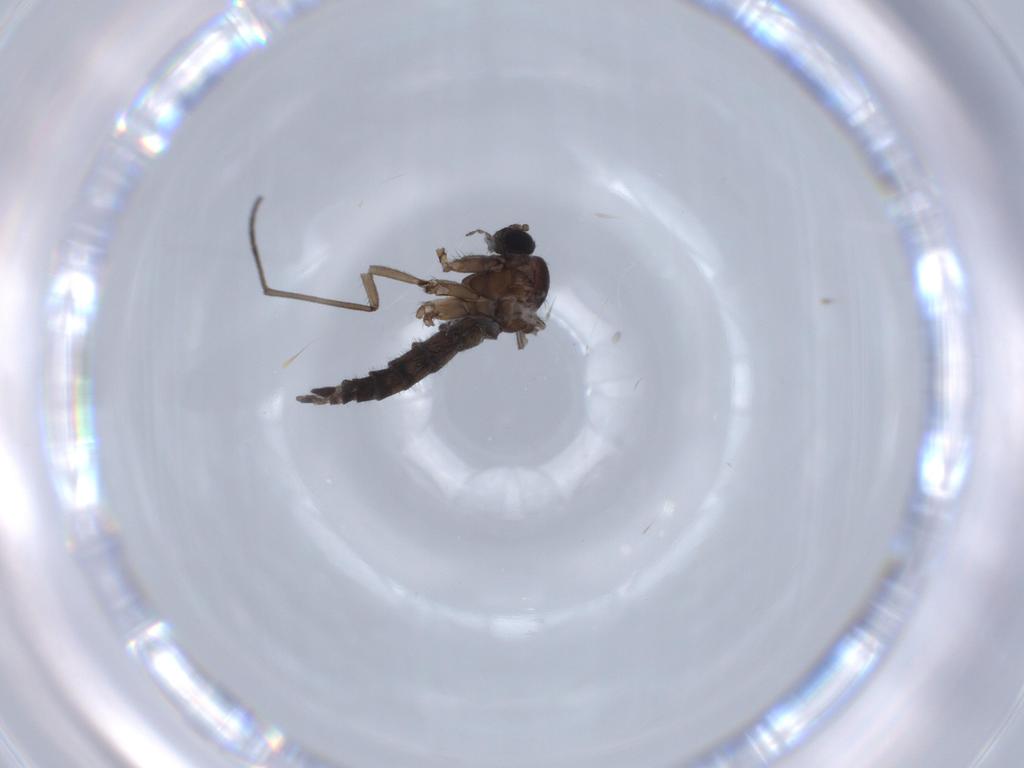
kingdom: Animalia
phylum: Arthropoda
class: Insecta
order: Diptera
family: Sciaridae
